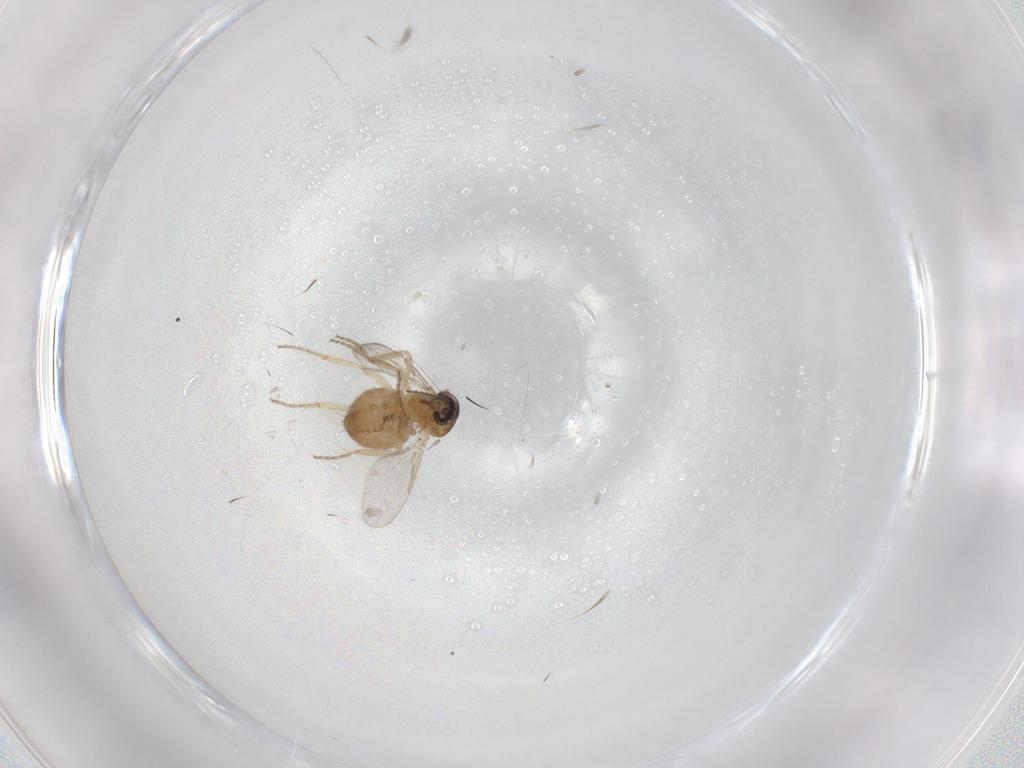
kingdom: Animalia
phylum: Arthropoda
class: Insecta
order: Diptera
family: Ceratopogonidae
